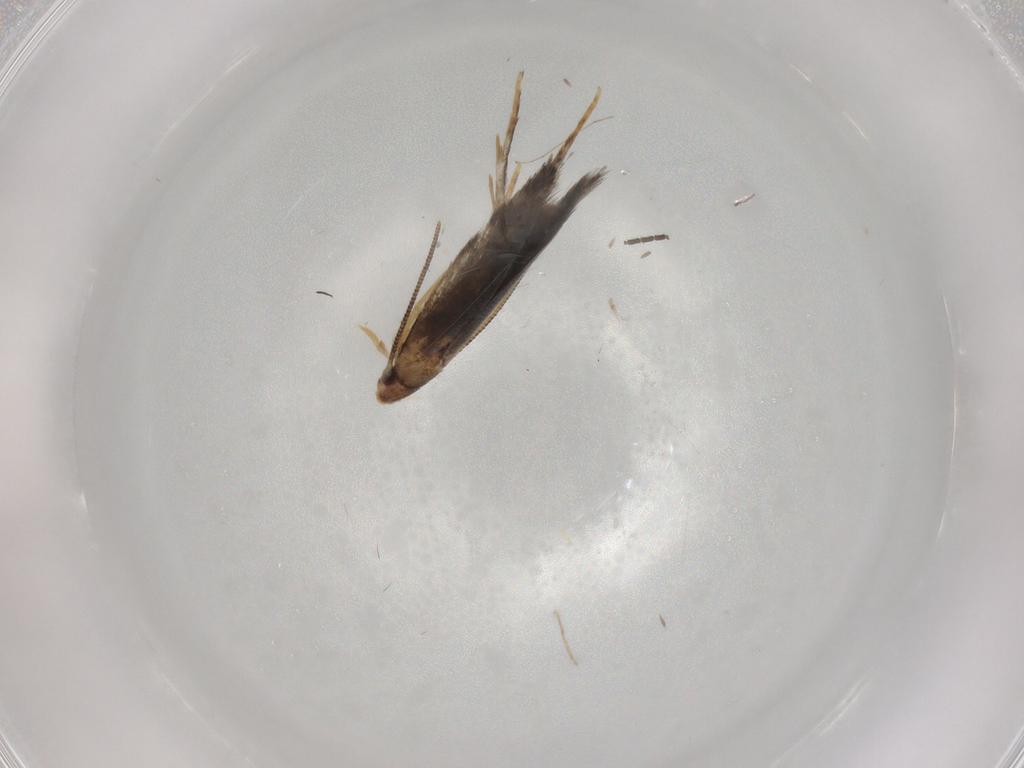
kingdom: Animalia
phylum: Arthropoda
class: Insecta
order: Lepidoptera
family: Elachistidae
